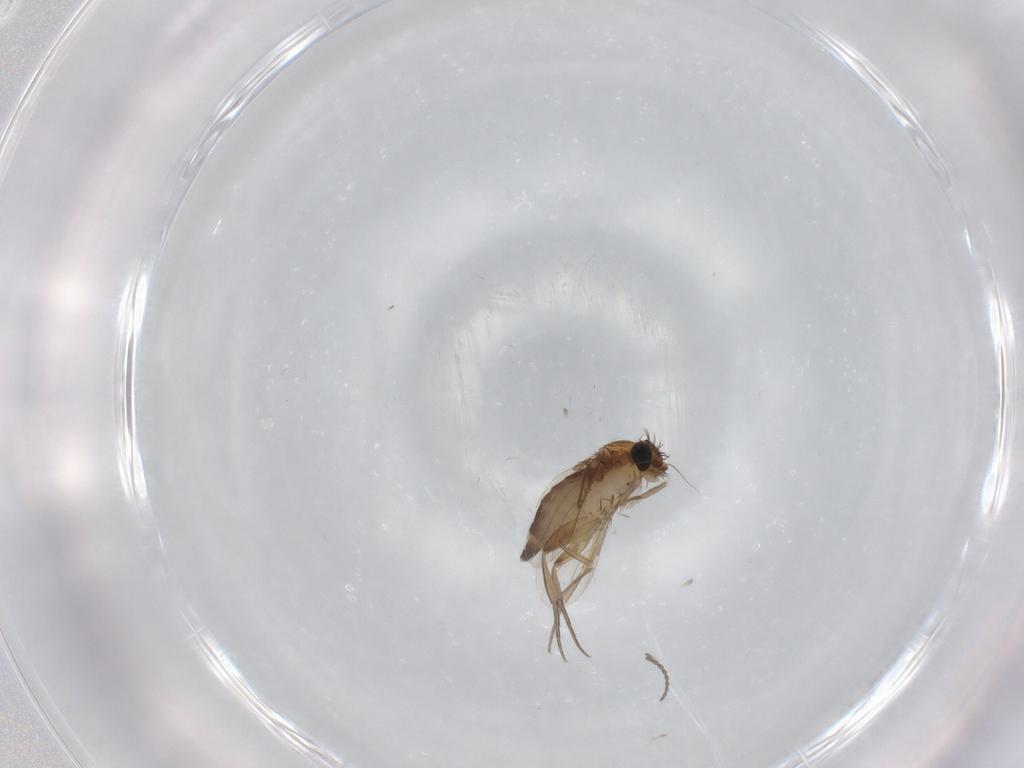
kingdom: Animalia
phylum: Arthropoda
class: Insecta
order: Diptera
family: Phoridae
